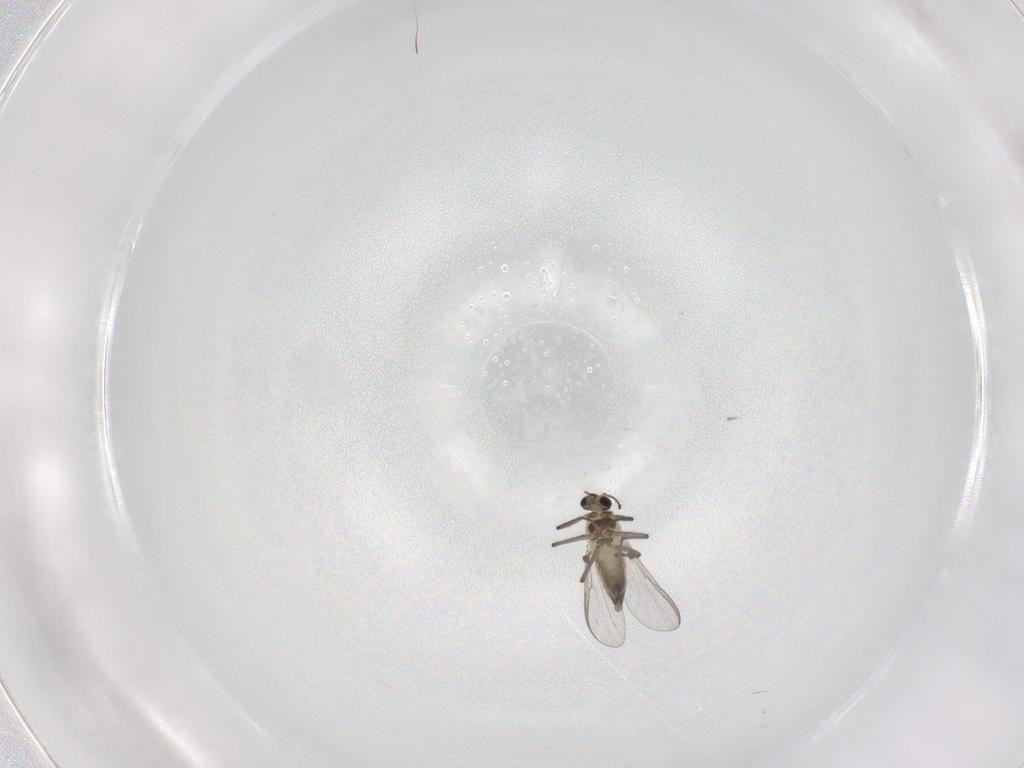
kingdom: Animalia
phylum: Arthropoda
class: Insecta
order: Diptera
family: Chironomidae
